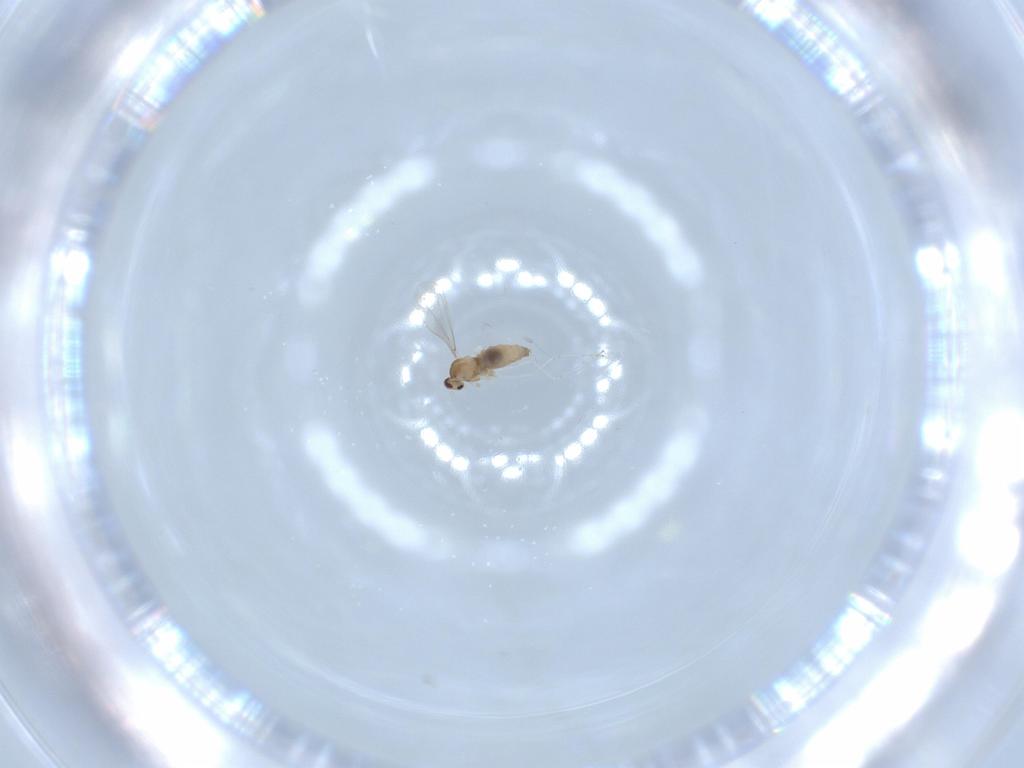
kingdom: Animalia
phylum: Arthropoda
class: Insecta
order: Diptera
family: Cecidomyiidae
